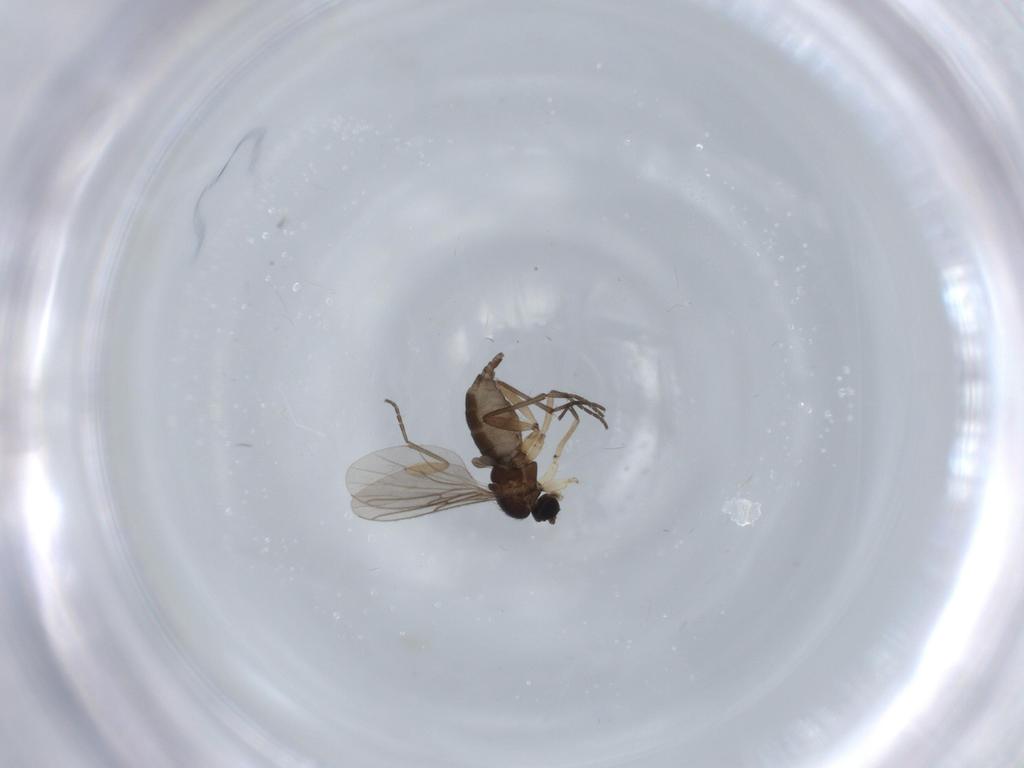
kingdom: Animalia
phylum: Arthropoda
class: Insecta
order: Diptera
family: Sciaridae
